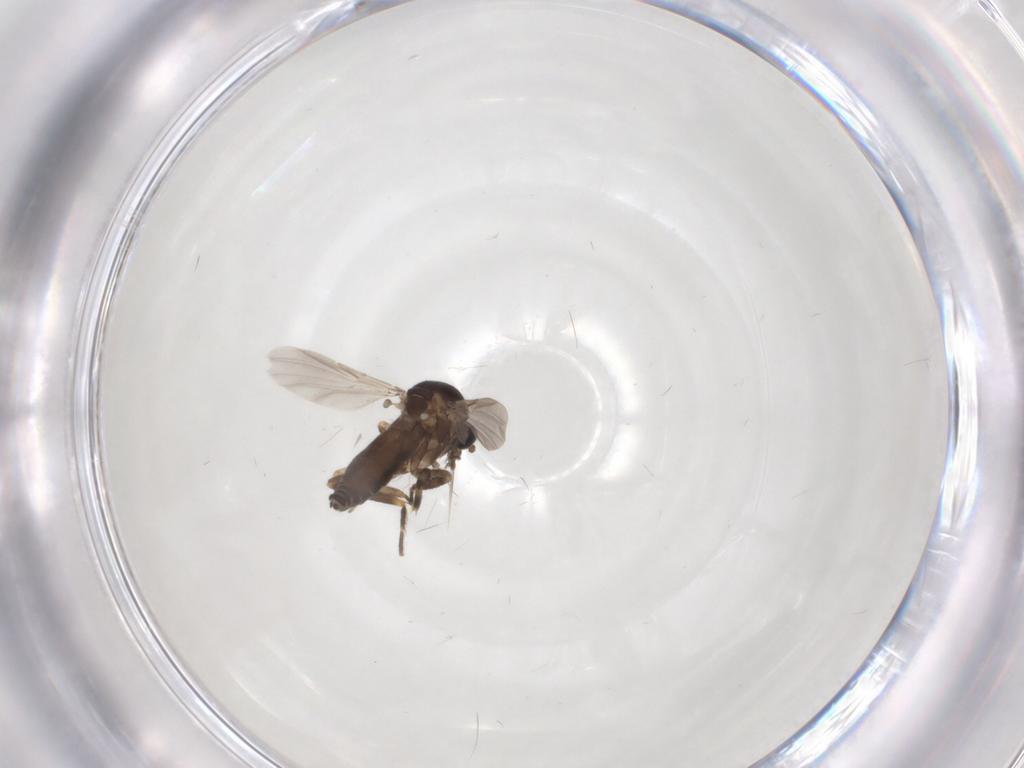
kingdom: Animalia
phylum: Arthropoda
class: Insecta
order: Diptera
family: Ceratopogonidae
